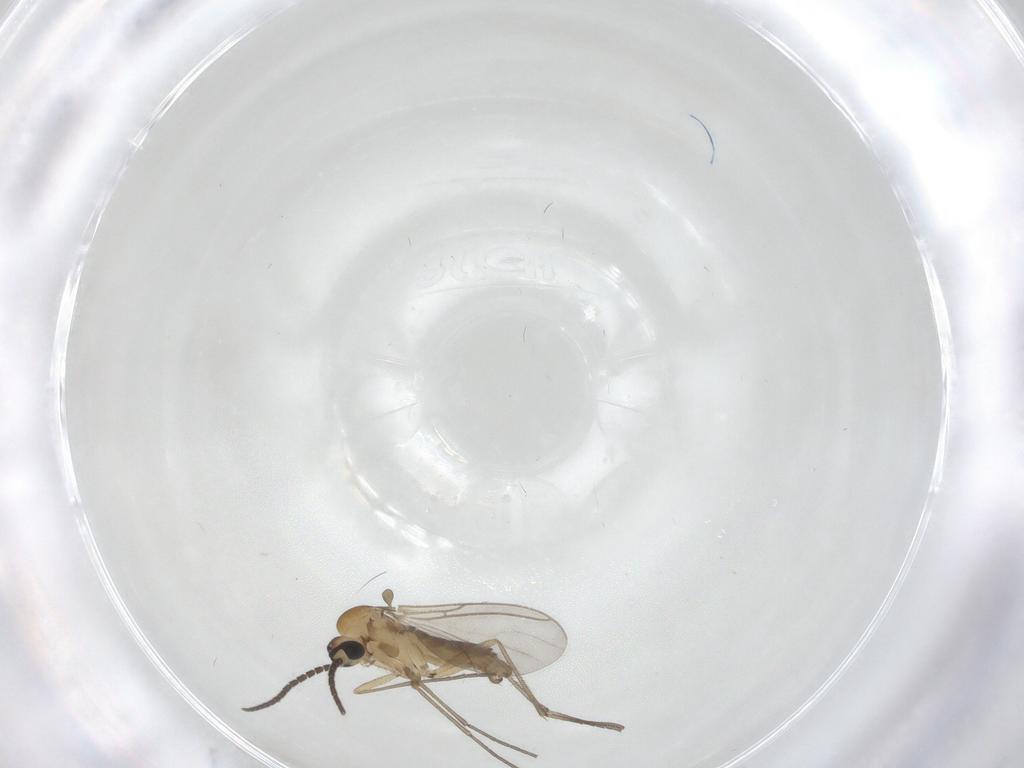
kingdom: Animalia
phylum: Arthropoda
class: Insecta
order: Diptera
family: Sciaridae
